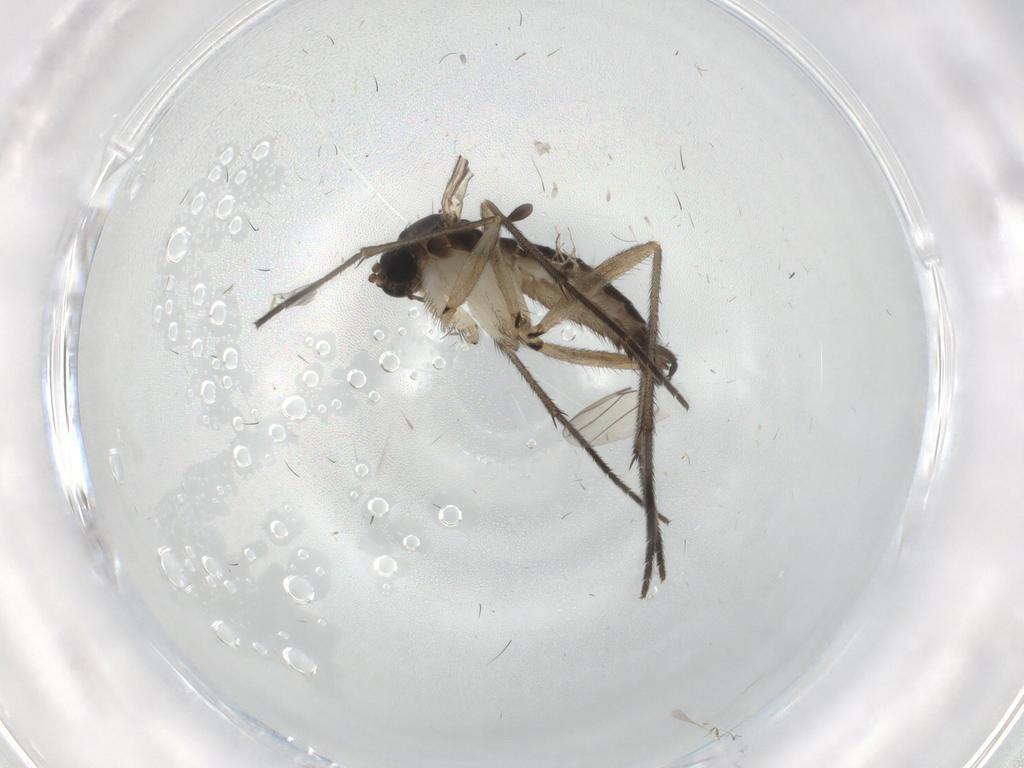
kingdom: Animalia
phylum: Arthropoda
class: Insecta
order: Diptera
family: Sciaridae
